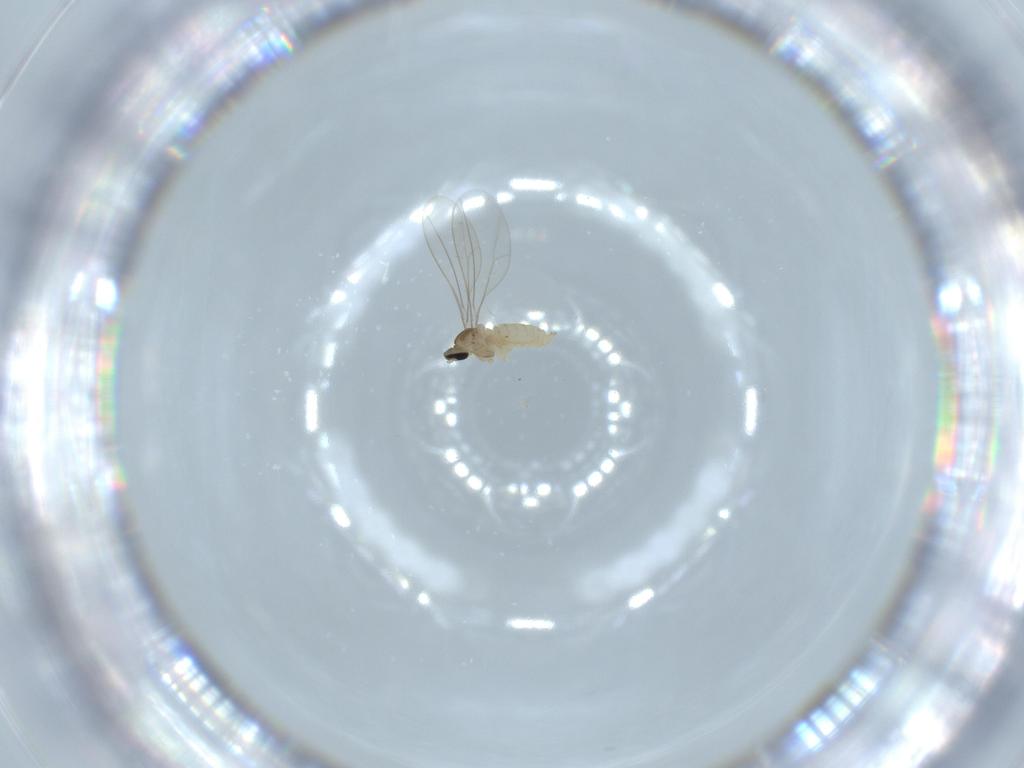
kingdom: Animalia
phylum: Arthropoda
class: Insecta
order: Diptera
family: Cecidomyiidae
